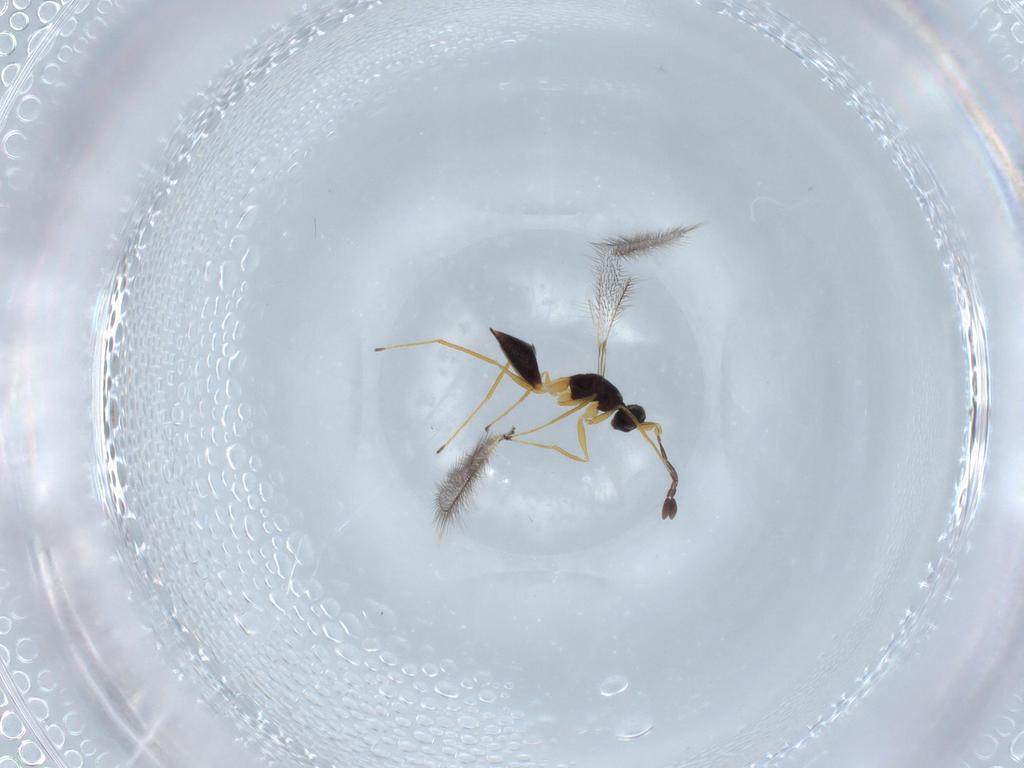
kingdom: Animalia
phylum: Arthropoda
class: Insecta
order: Hymenoptera
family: Mymaridae
